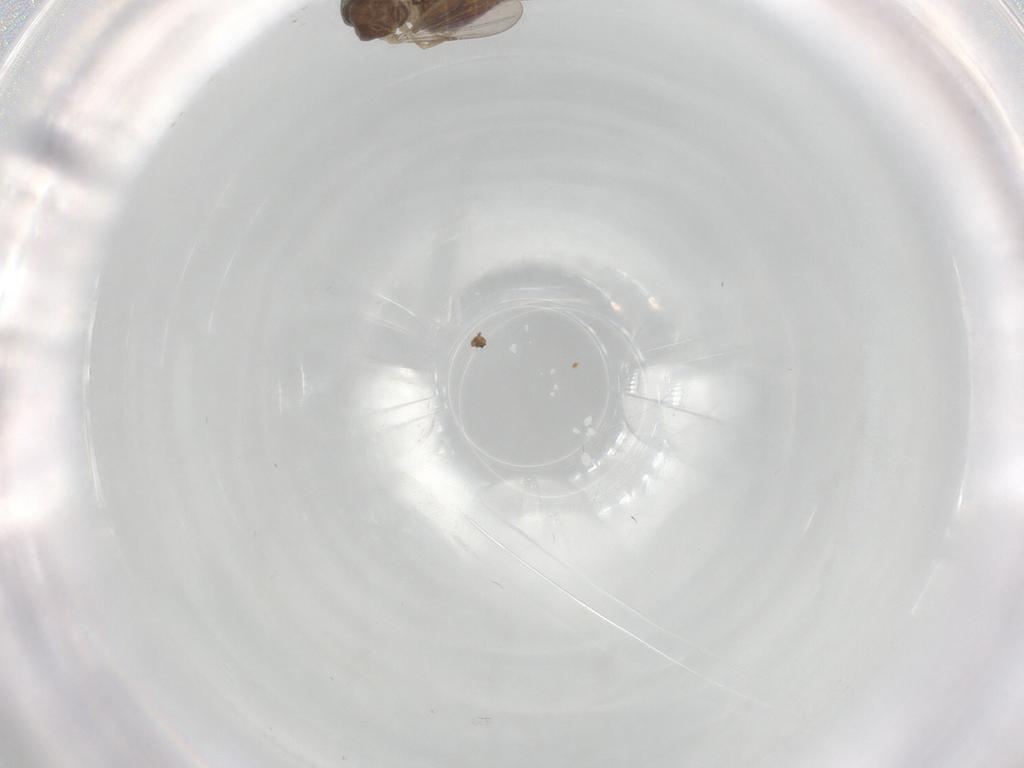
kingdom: Animalia
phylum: Arthropoda
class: Insecta
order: Diptera
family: Ceratopogonidae
